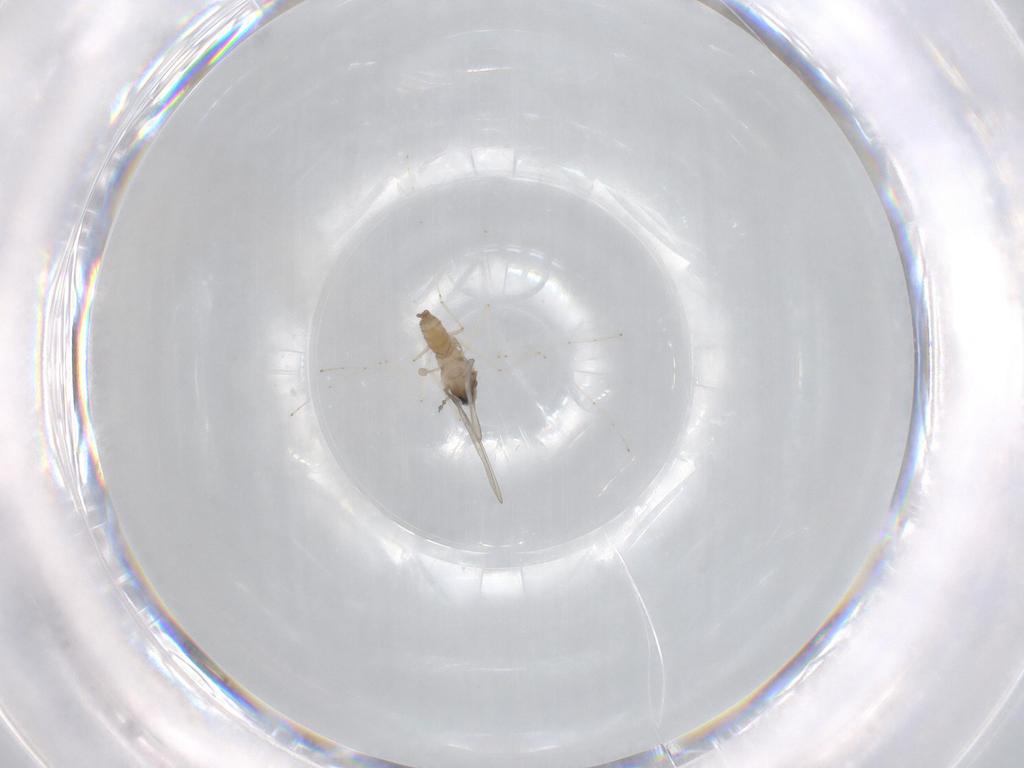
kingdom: Animalia
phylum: Arthropoda
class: Insecta
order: Diptera
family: Cecidomyiidae
